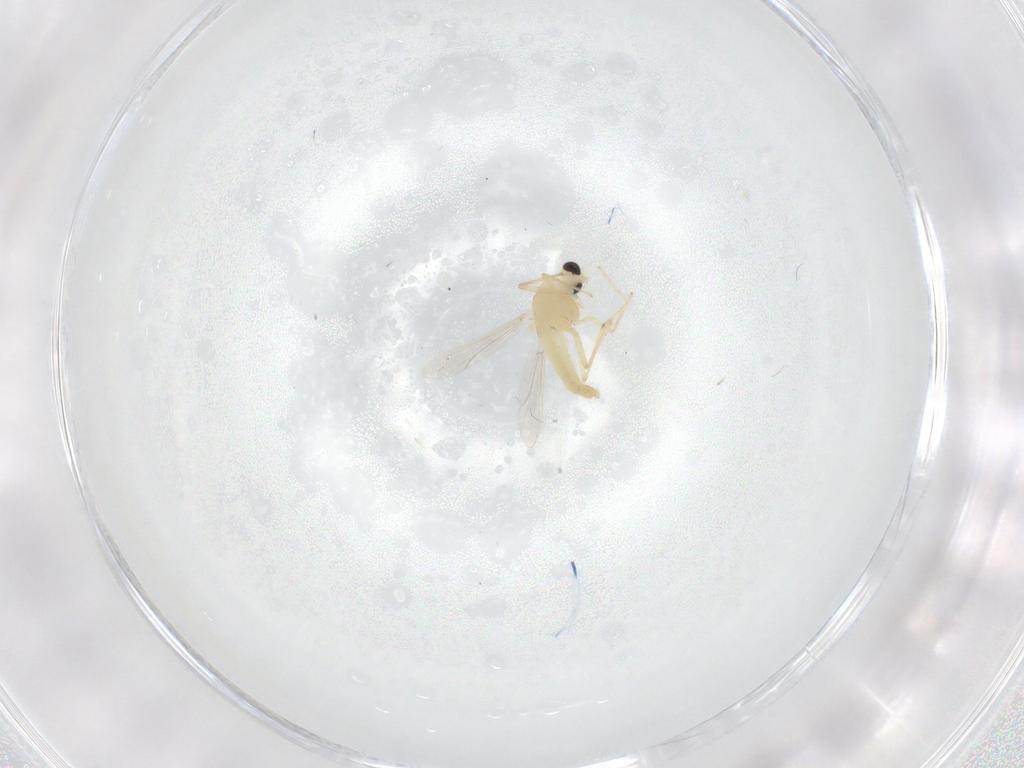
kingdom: Animalia
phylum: Arthropoda
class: Insecta
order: Diptera
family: Chironomidae
